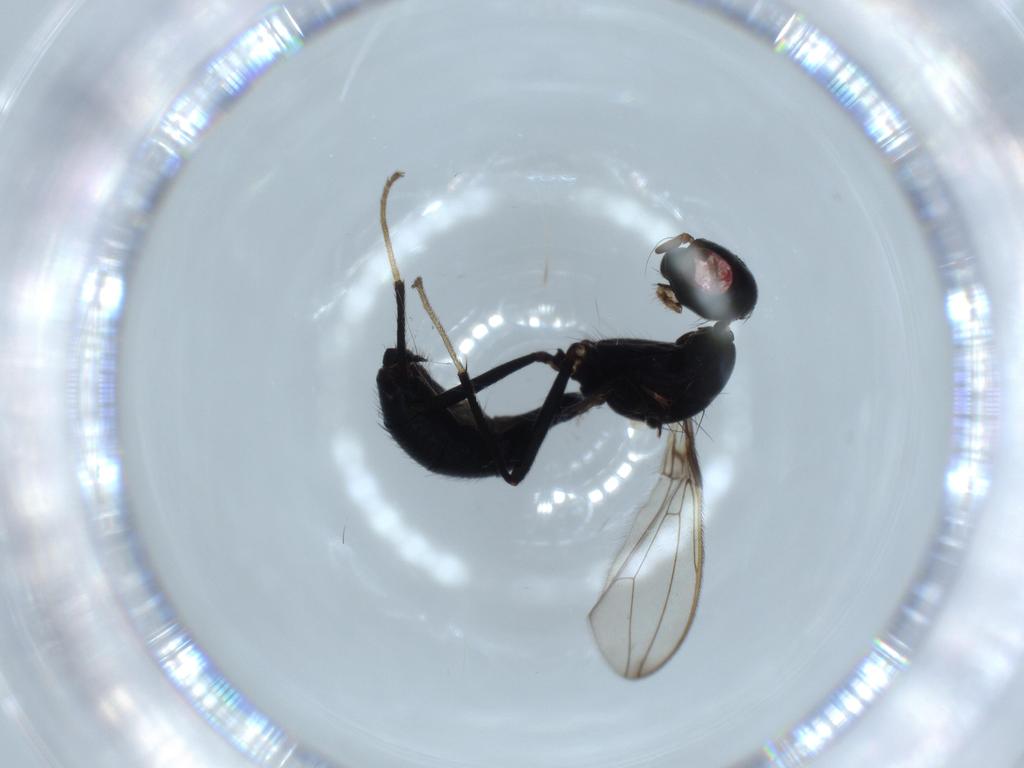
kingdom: Animalia
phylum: Arthropoda
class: Insecta
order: Diptera
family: Richardiidae
